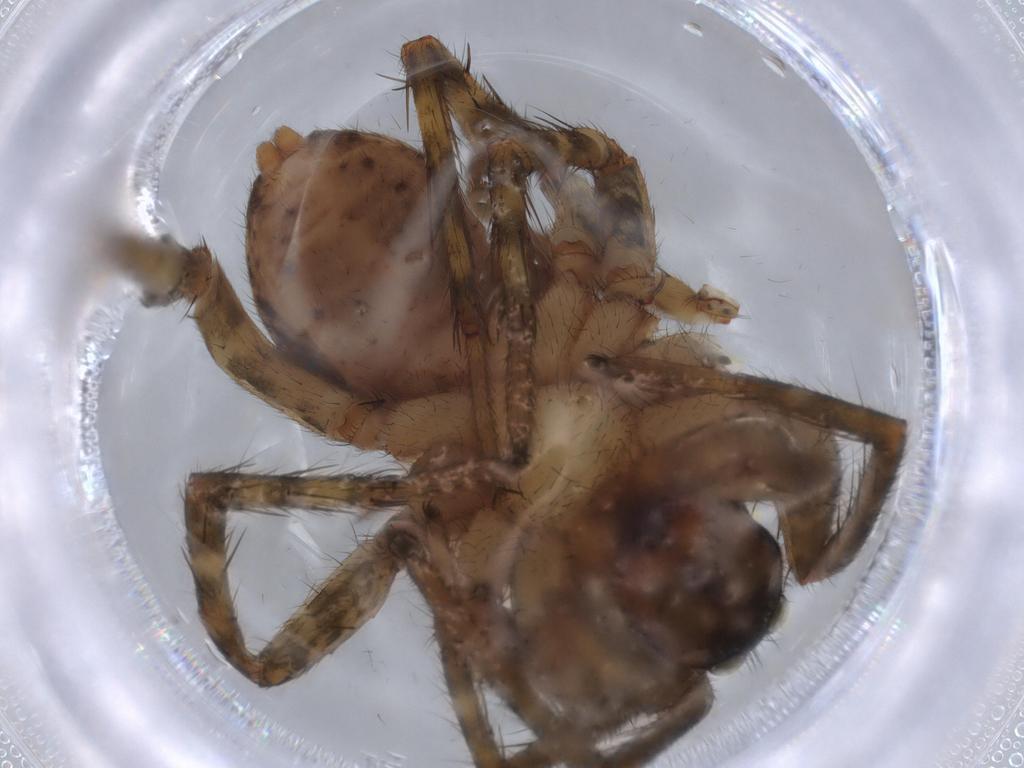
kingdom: Animalia
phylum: Arthropoda
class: Arachnida
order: Araneae
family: Lycosidae
